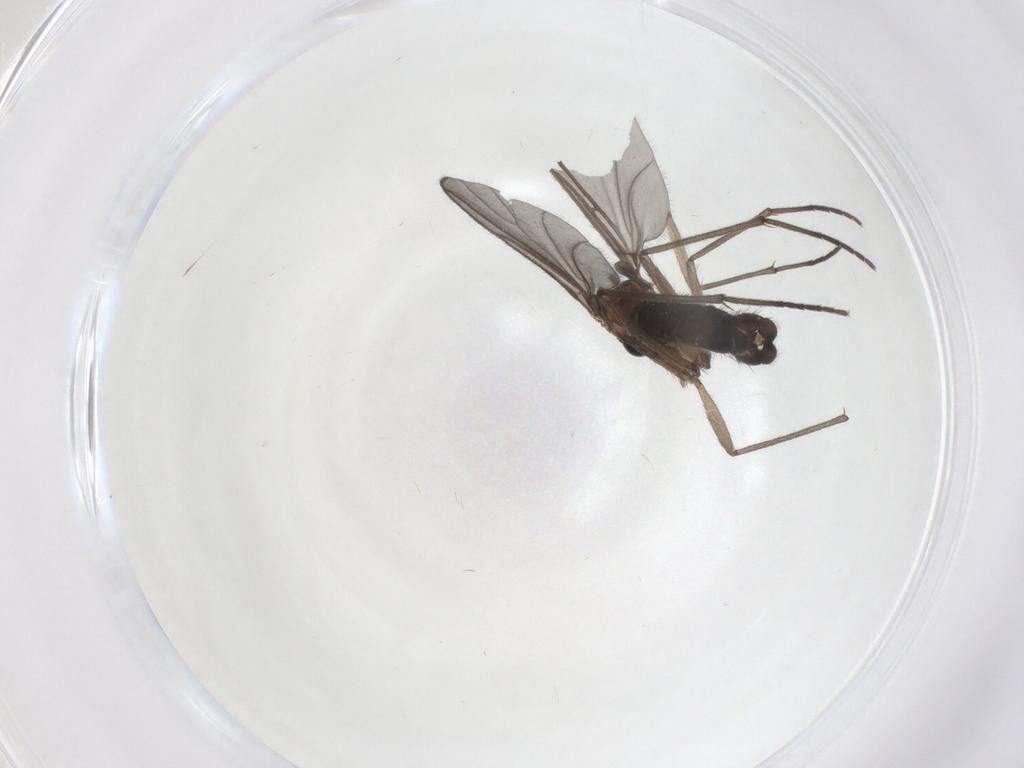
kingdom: Animalia
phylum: Arthropoda
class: Insecta
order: Diptera
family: Sciaridae
